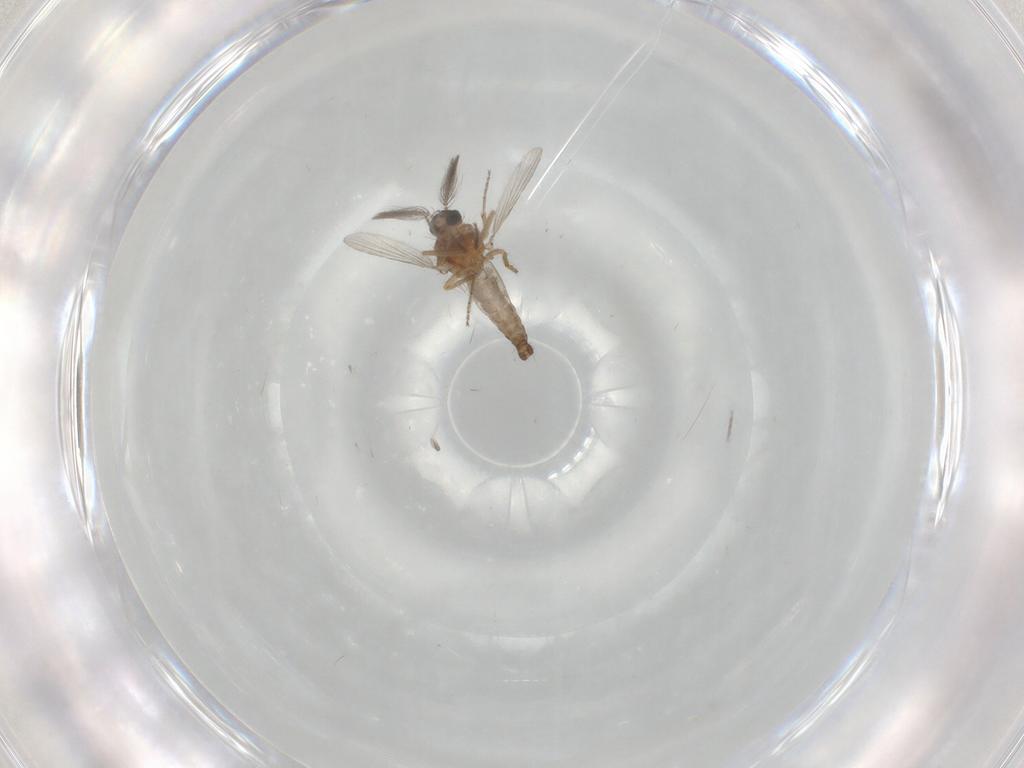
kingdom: Animalia
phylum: Arthropoda
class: Insecta
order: Diptera
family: Ceratopogonidae
